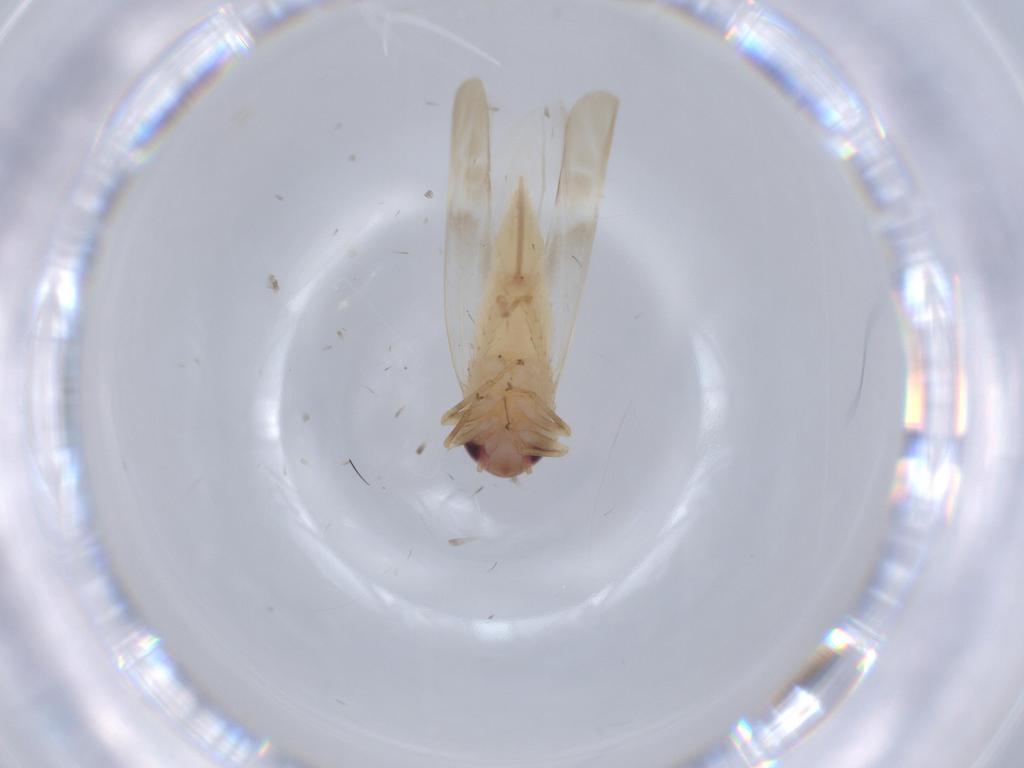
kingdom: Animalia
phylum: Arthropoda
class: Insecta
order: Hemiptera
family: Cicadellidae
